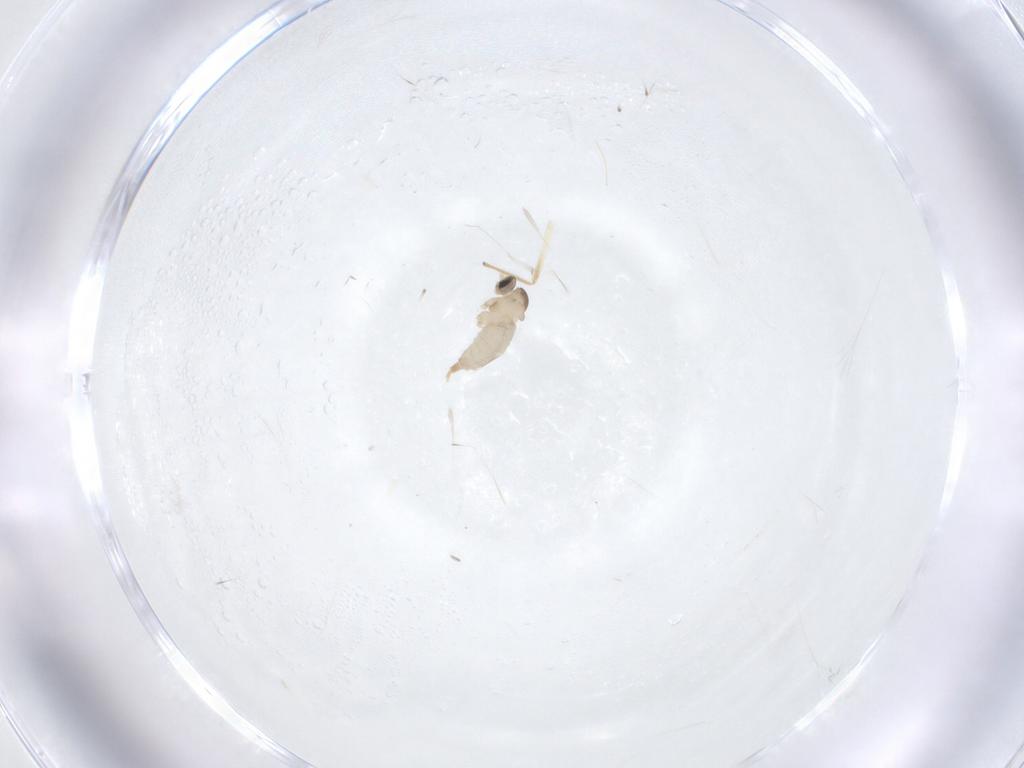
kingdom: Animalia
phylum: Arthropoda
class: Insecta
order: Diptera
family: Chironomidae
